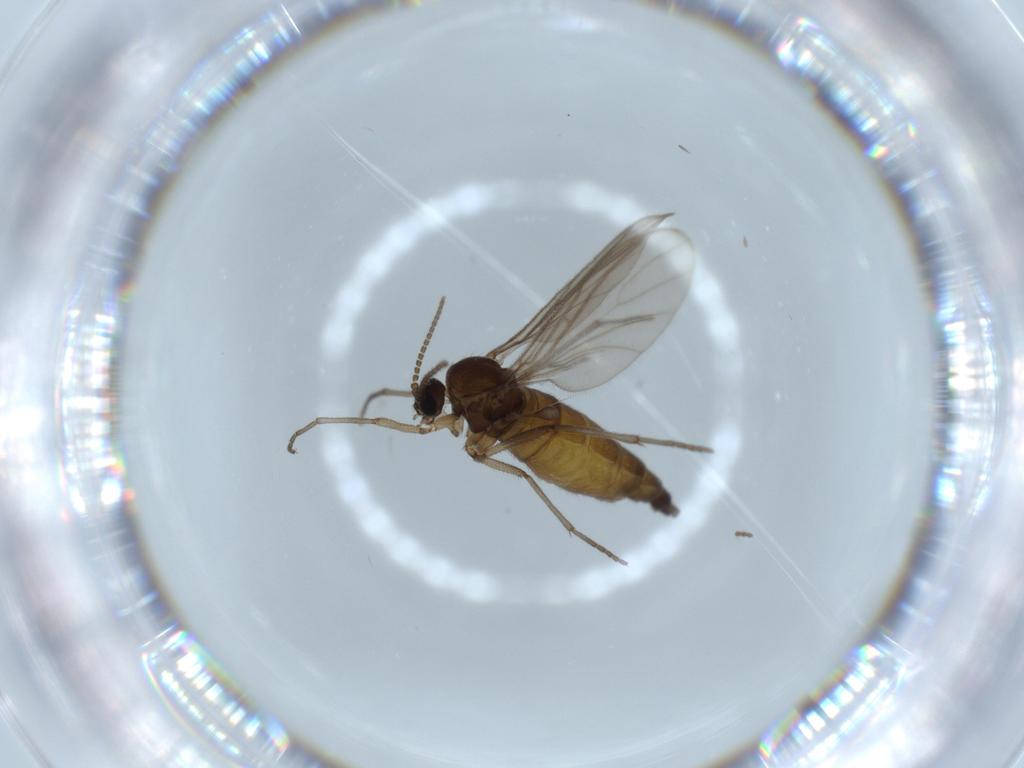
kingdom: Animalia
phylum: Arthropoda
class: Insecta
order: Diptera
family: Sciaridae
